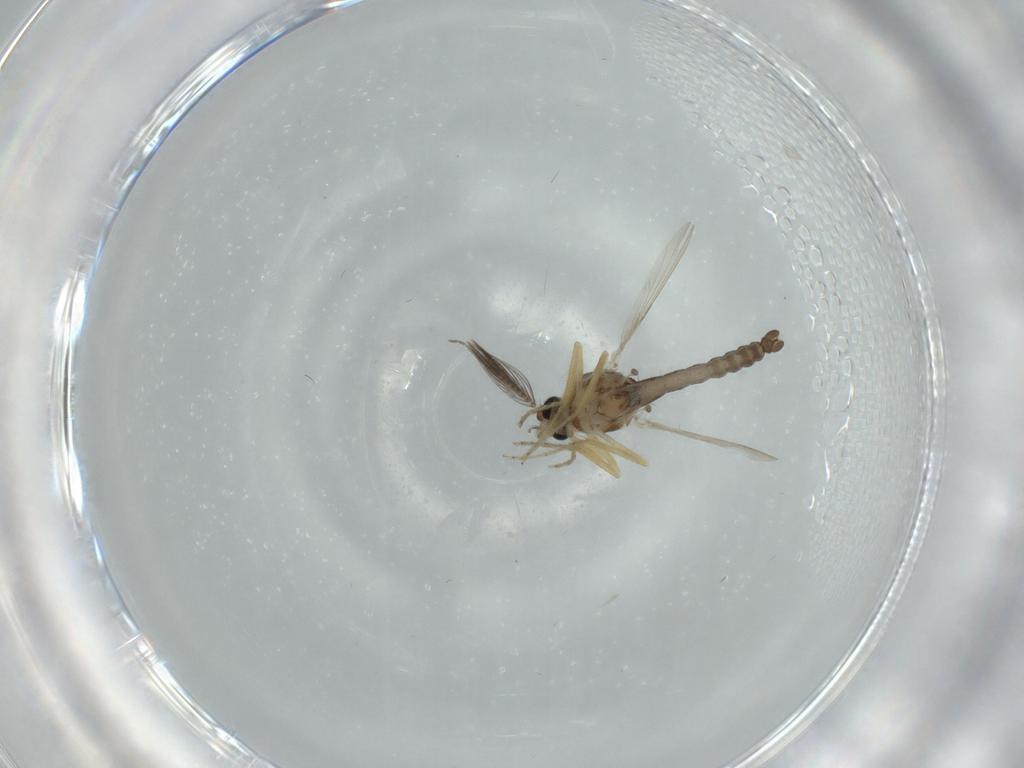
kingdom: Animalia
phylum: Arthropoda
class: Insecta
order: Diptera
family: Ceratopogonidae
